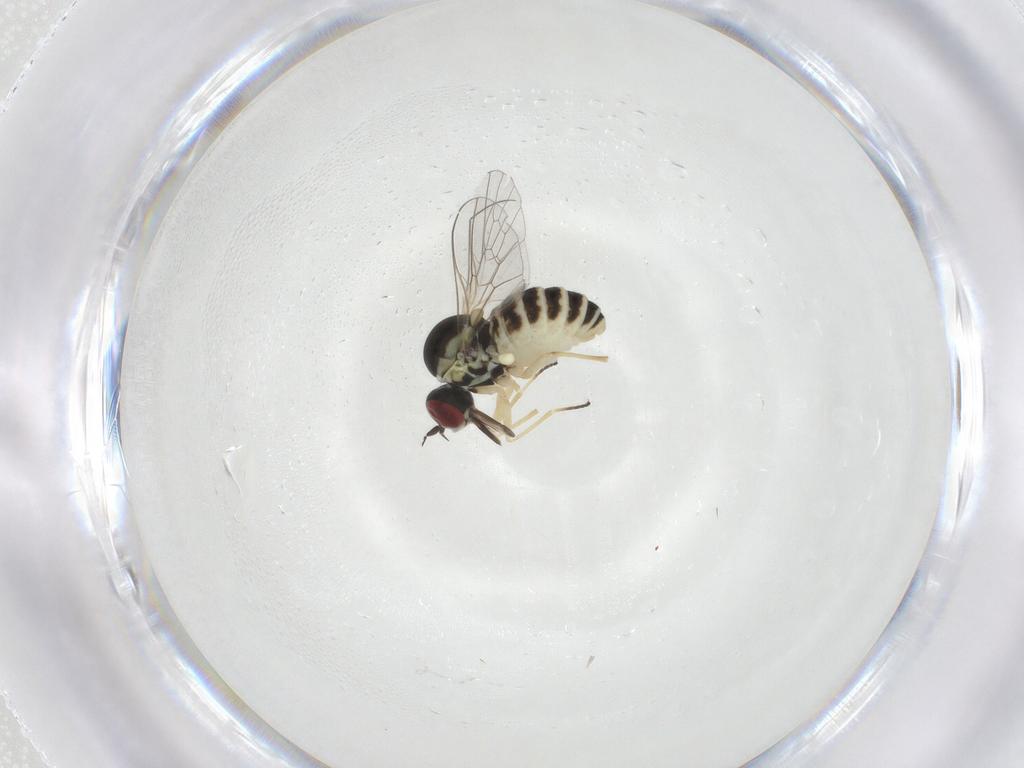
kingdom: Animalia
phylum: Arthropoda
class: Insecta
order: Diptera
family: Mythicomyiidae
